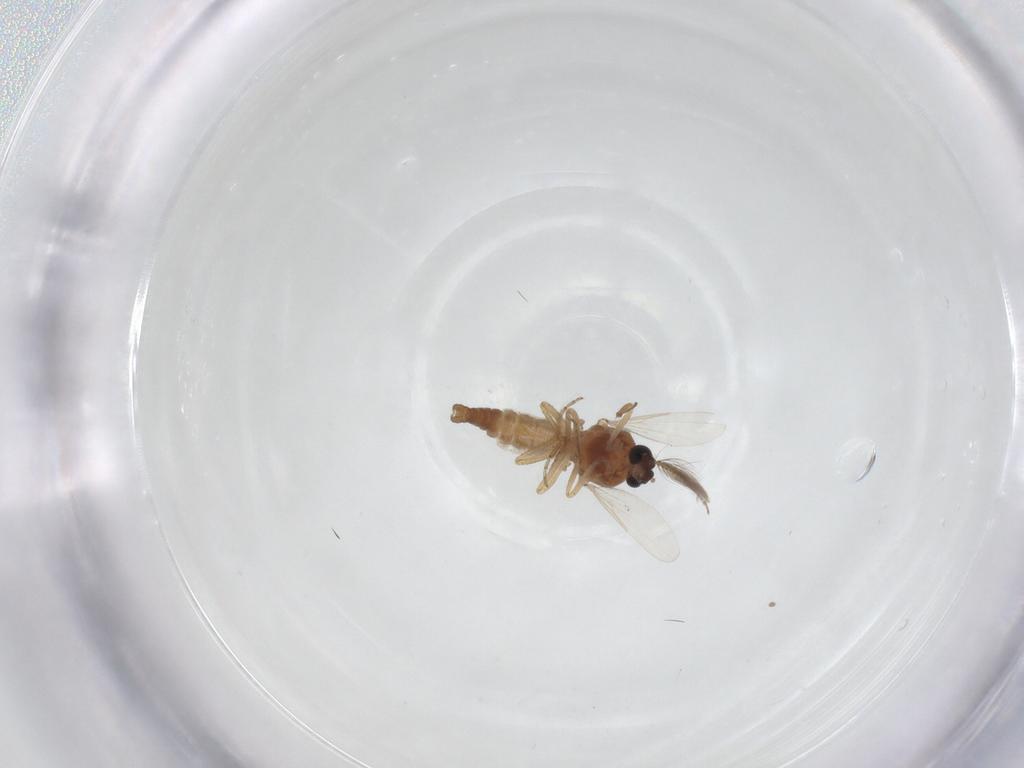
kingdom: Animalia
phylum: Arthropoda
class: Insecta
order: Diptera
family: Ceratopogonidae
